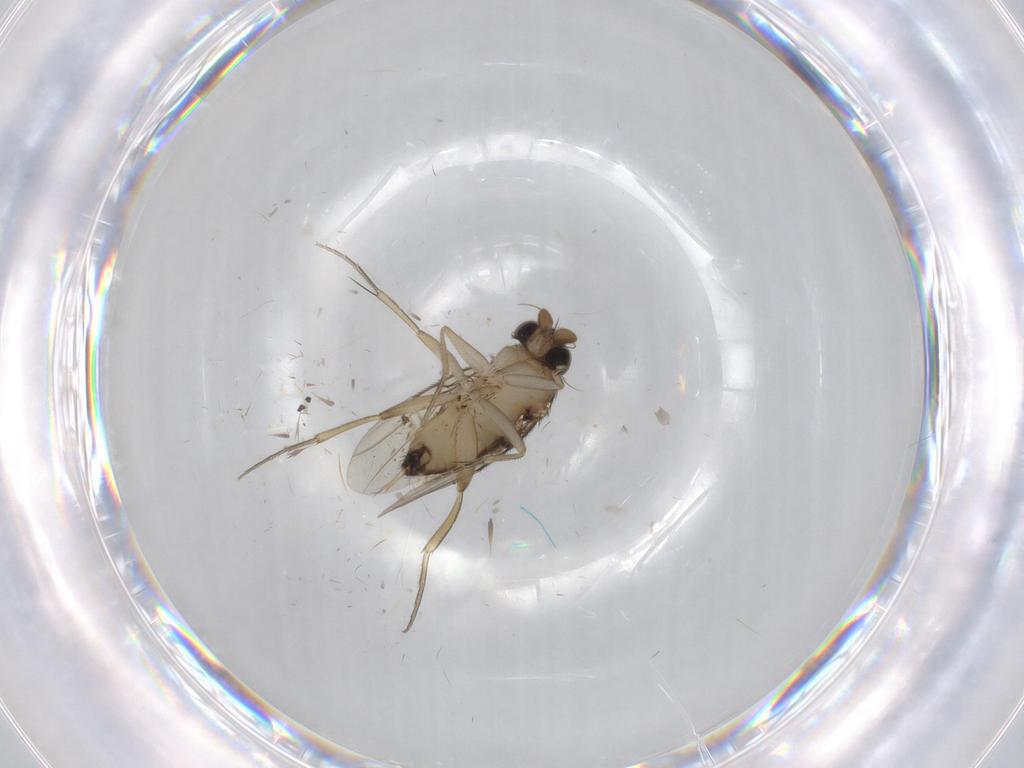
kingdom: Animalia
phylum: Arthropoda
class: Insecta
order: Diptera
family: Phoridae
